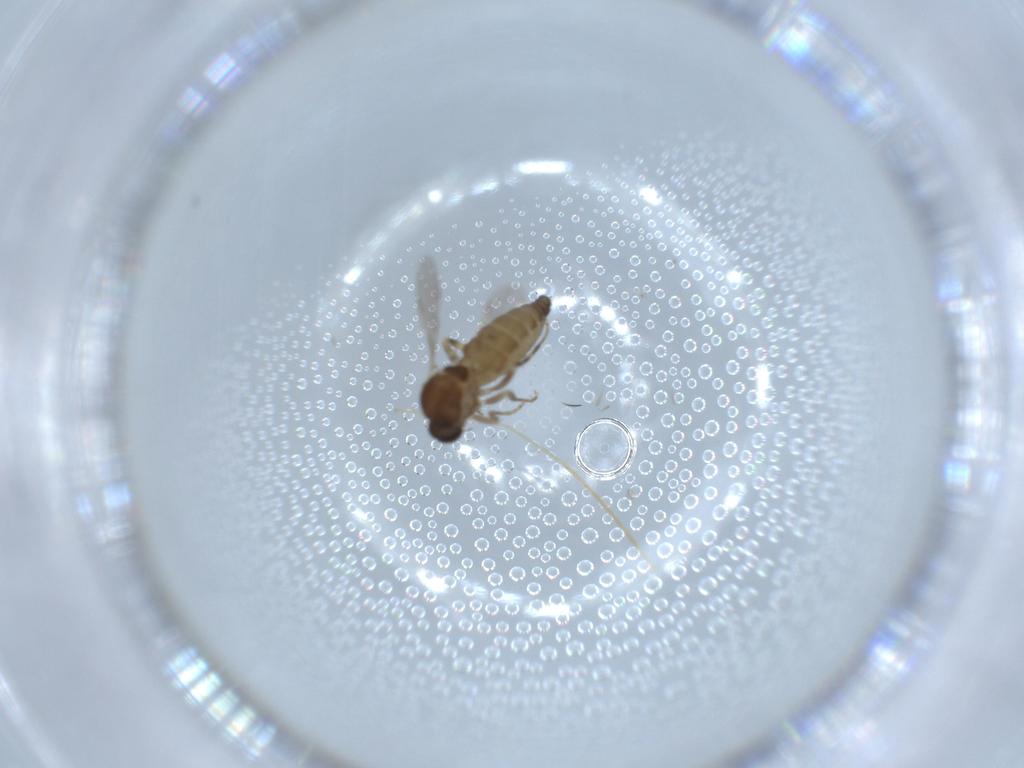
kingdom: Animalia
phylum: Arthropoda
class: Insecta
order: Diptera
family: Ceratopogonidae
